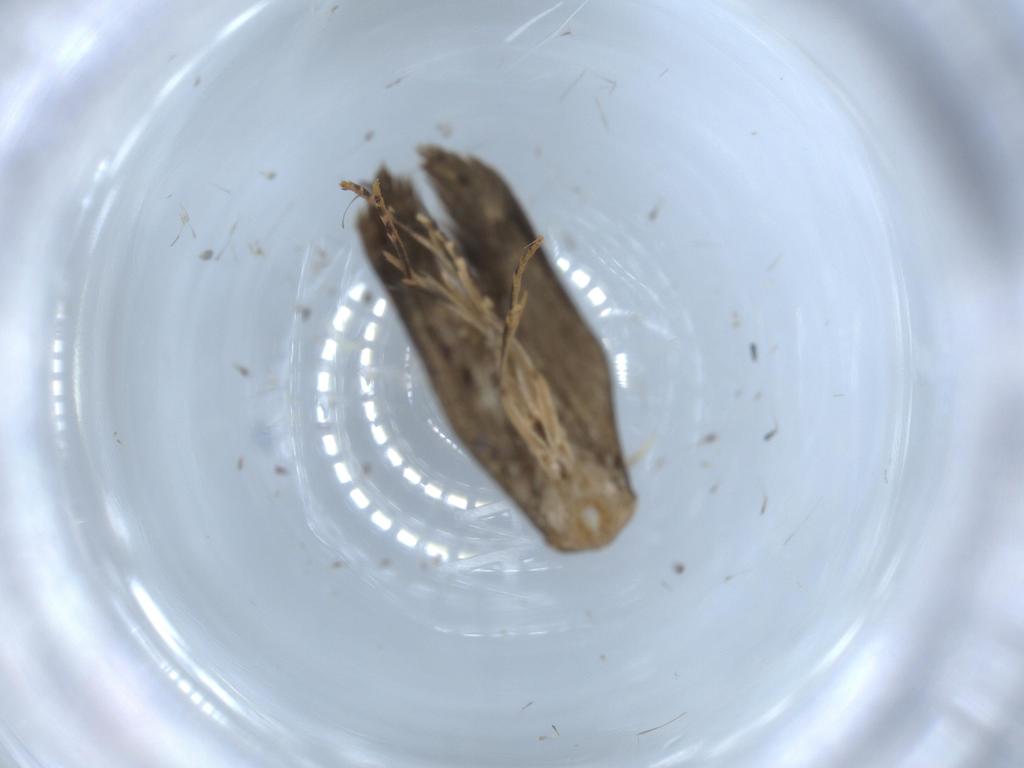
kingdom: Animalia
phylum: Arthropoda
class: Insecta
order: Lepidoptera
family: Tineidae
